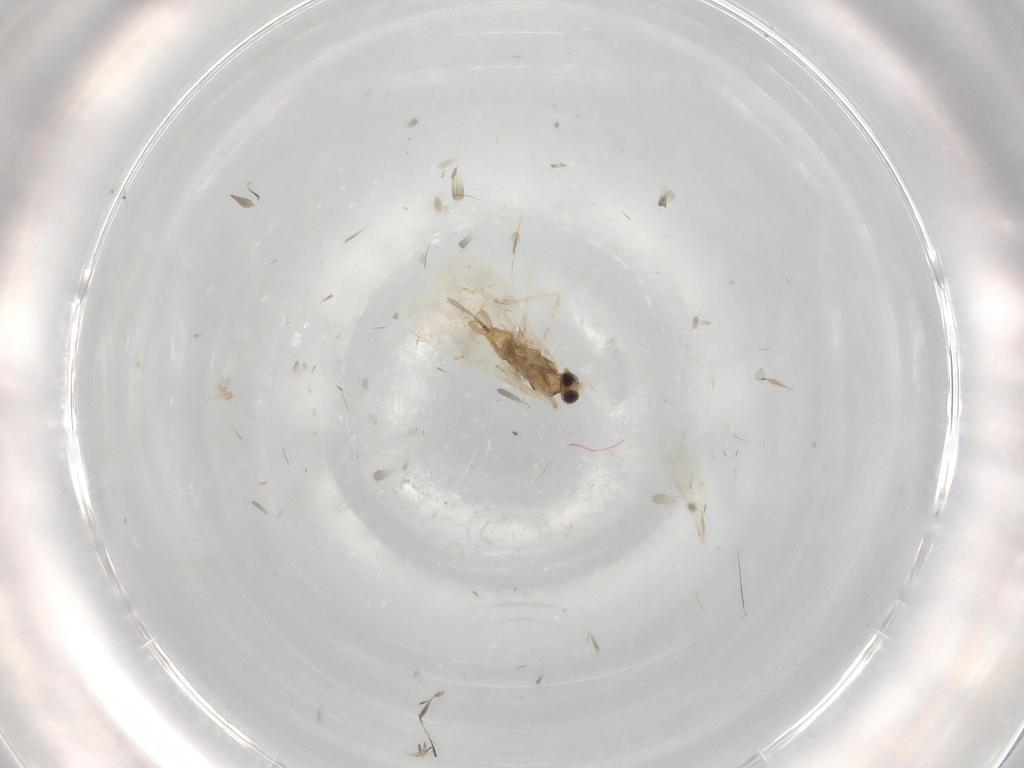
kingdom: Animalia
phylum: Arthropoda
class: Insecta
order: Diptera
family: Cecidomyiidae
